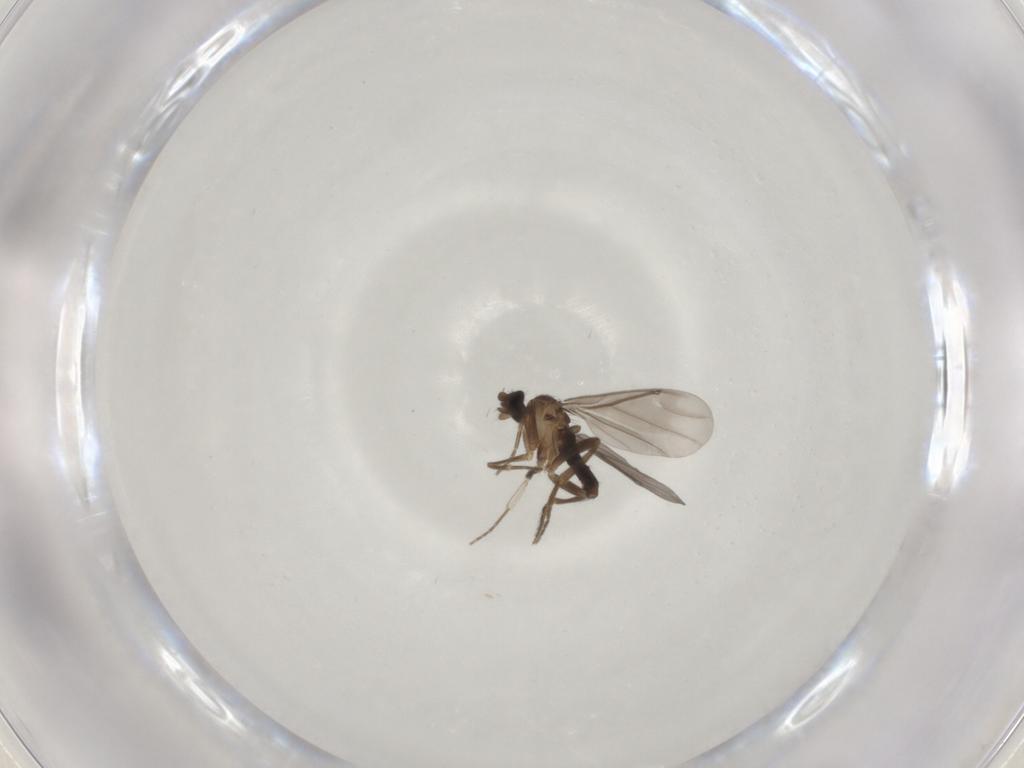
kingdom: Animalia
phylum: Arthropoda
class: Insecta
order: Diptera
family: Phoridae
